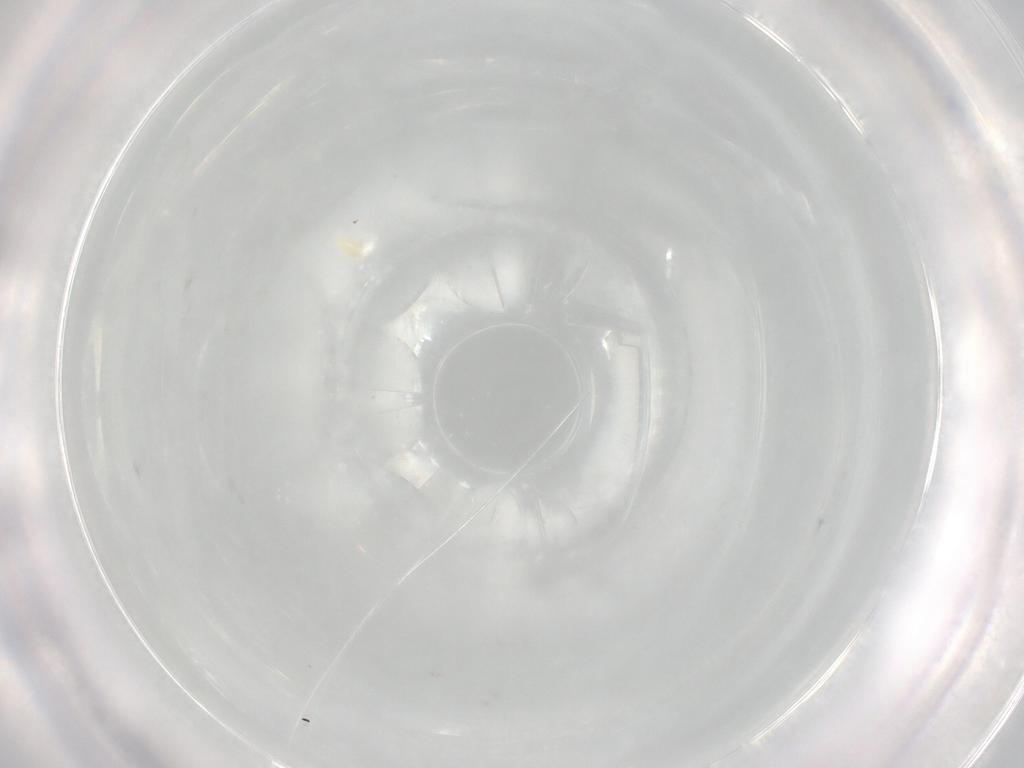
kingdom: Animalia
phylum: Arthropoda
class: Arachnida
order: Trombidiformes
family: Eupodidae
